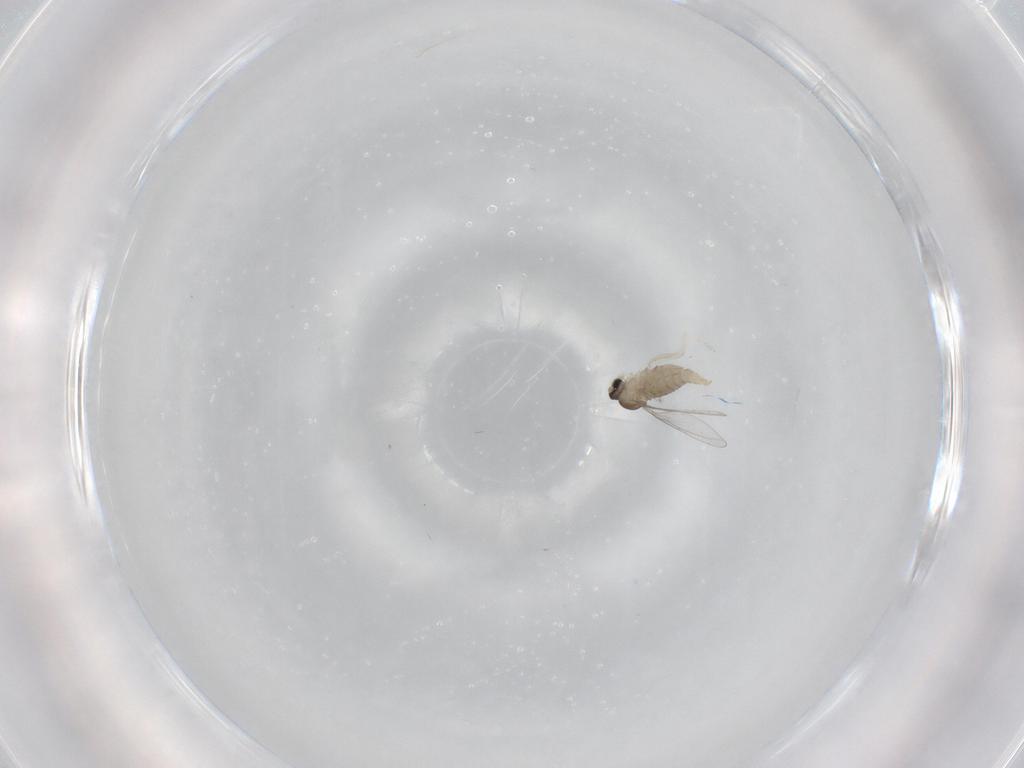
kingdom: Animalia
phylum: Arthropoda
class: Insecta
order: Diptera
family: Cecidomyiidae
